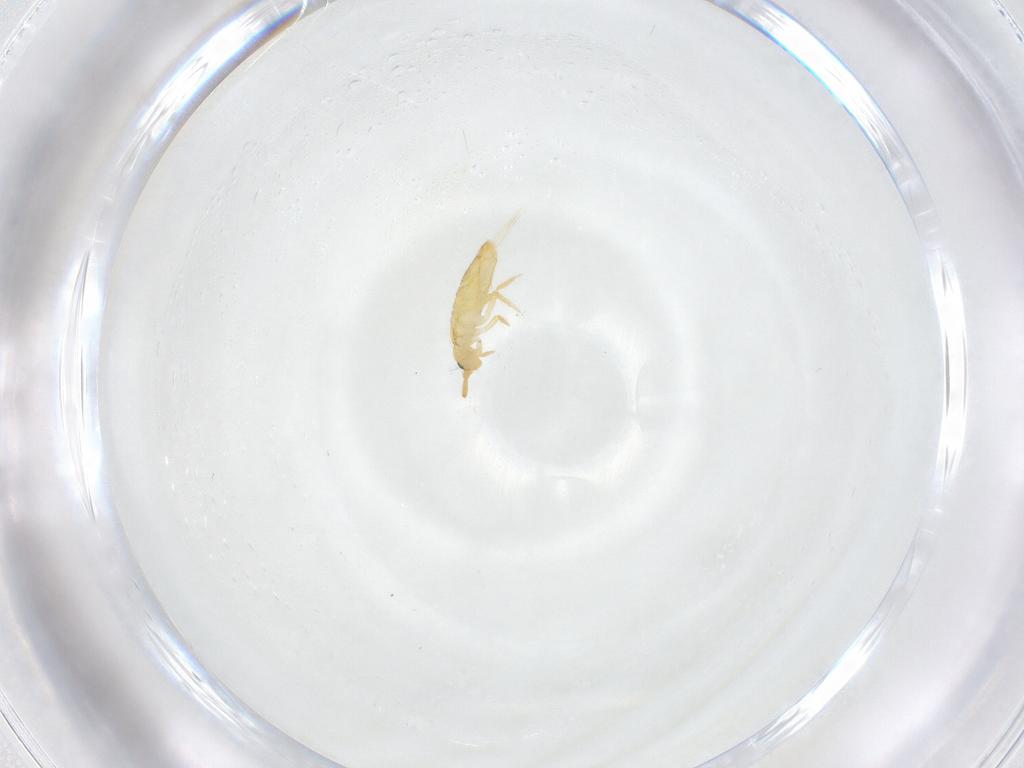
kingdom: Animalia
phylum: Arthropoda
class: Collembola
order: Entomobryomorpha
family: Entomobryidae
